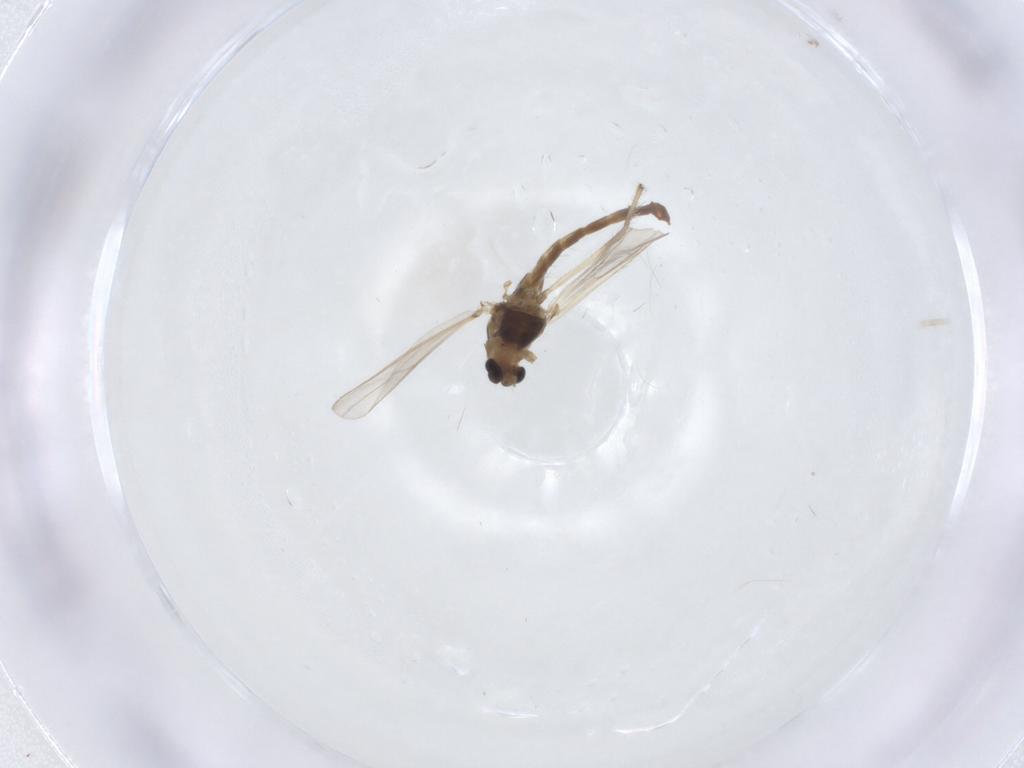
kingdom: Animalia
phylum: Arthropoda
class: Insecta
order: Diptera
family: Chironomidae
